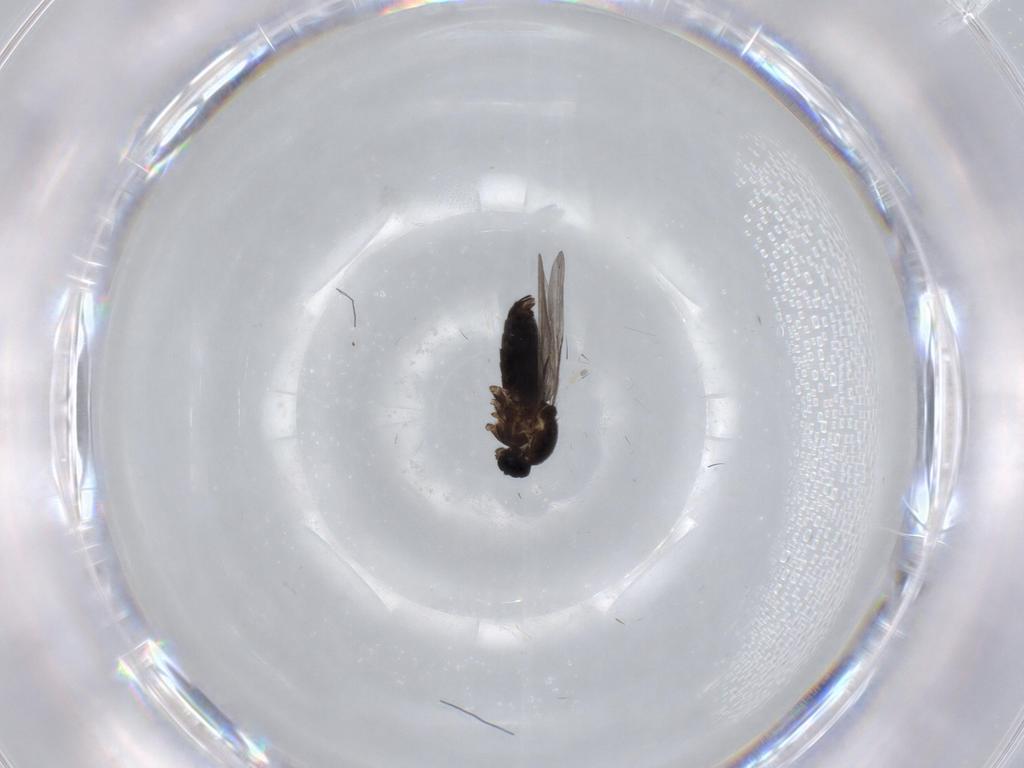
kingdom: Animalia
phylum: Arthropoda
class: Insecta
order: Diptera
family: Scatopsidae
